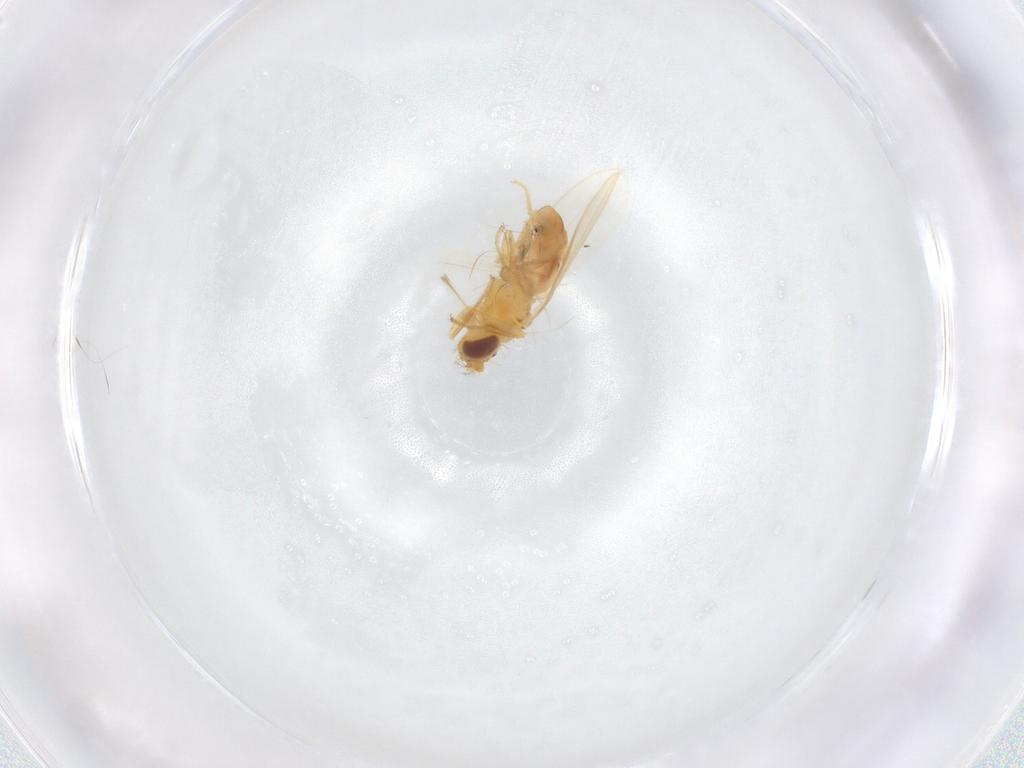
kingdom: Animalia
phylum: Arthropoda
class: Insecta
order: Diptera
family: Periscelididae
